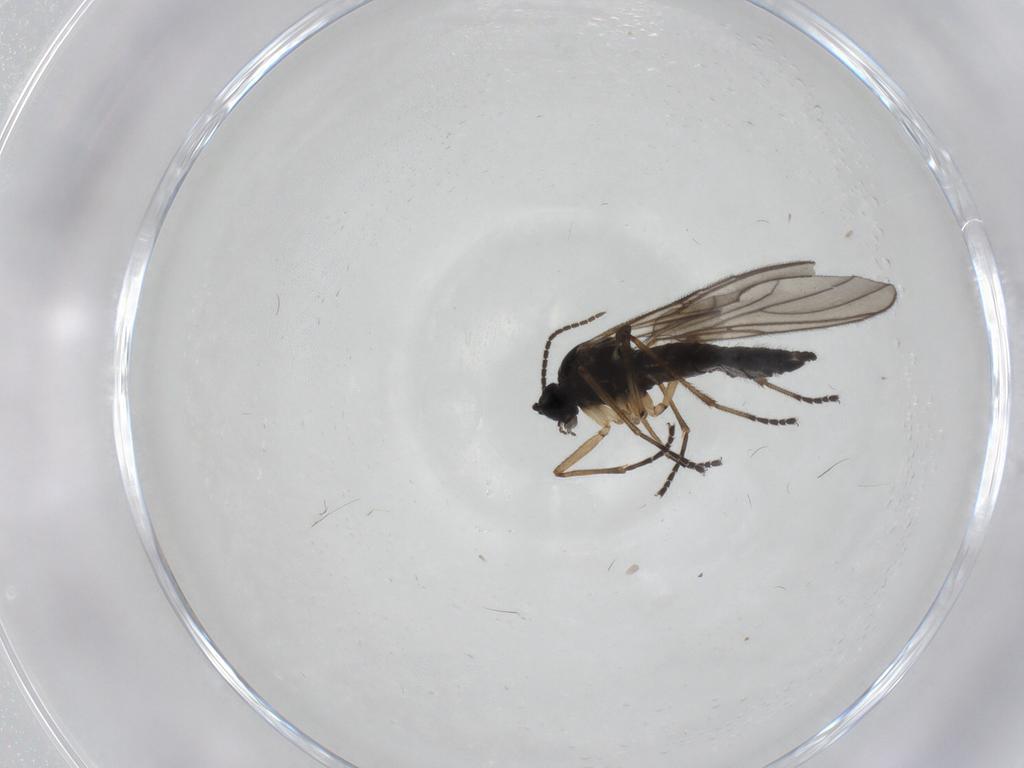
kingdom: Animalia
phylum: Arthropoda
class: Insecta
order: Diptera
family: Sciaridae
